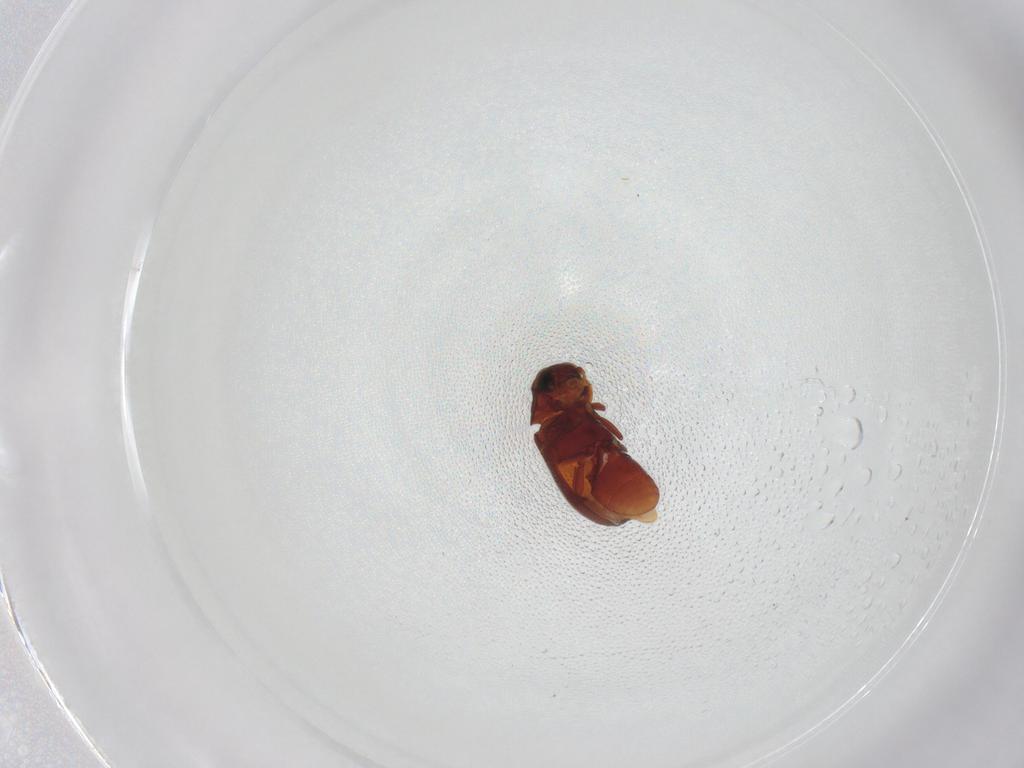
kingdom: Animalia
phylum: Arthropoda
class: Insecta
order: Coleoptera
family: Ptinidae
